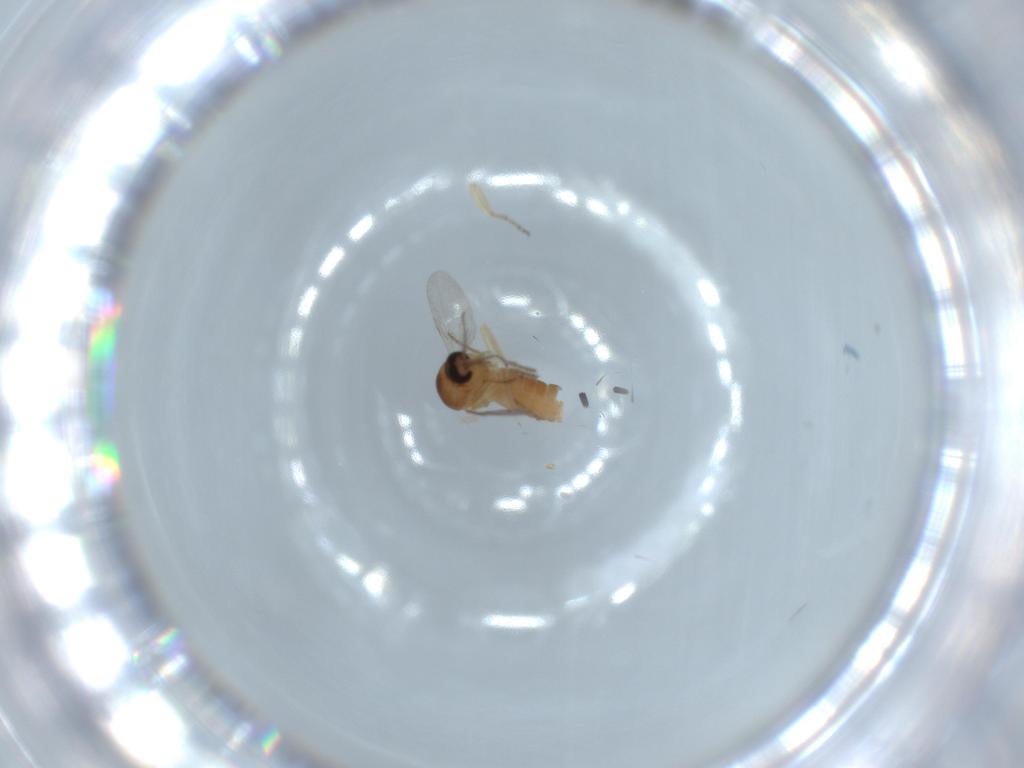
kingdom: Animalia
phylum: Arthropoda
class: Insecta
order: Diptera
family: Ceratopogonidae
